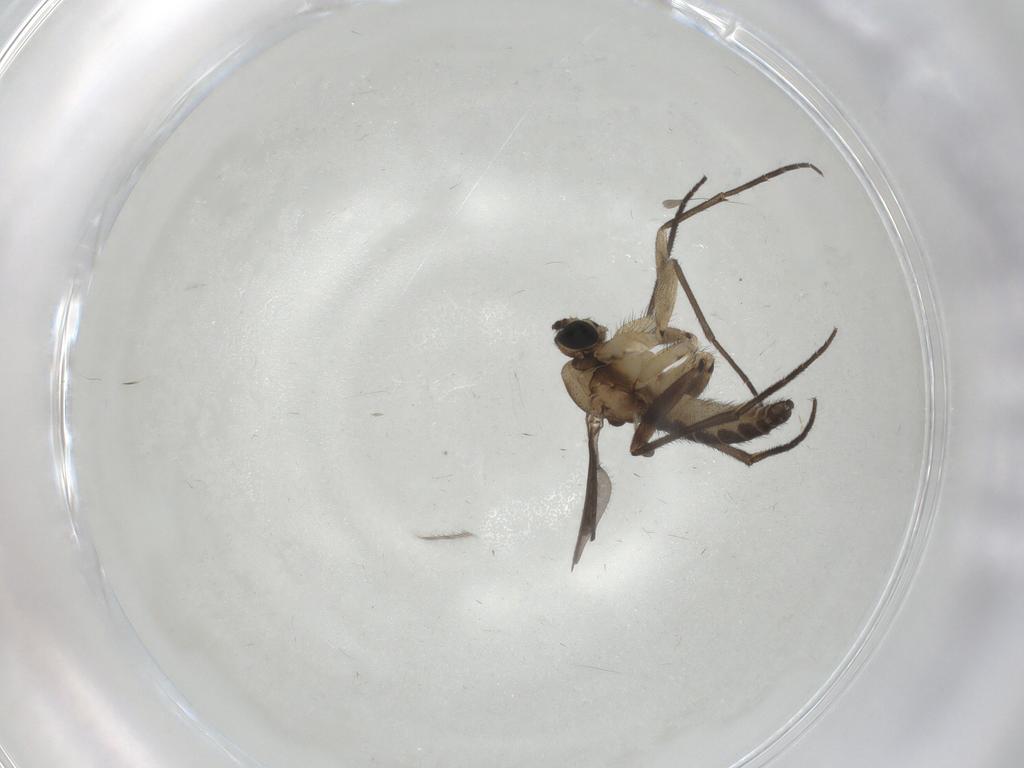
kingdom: Animalia
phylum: Arthropoda
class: Insecta
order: Diptera
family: Sciaridae
